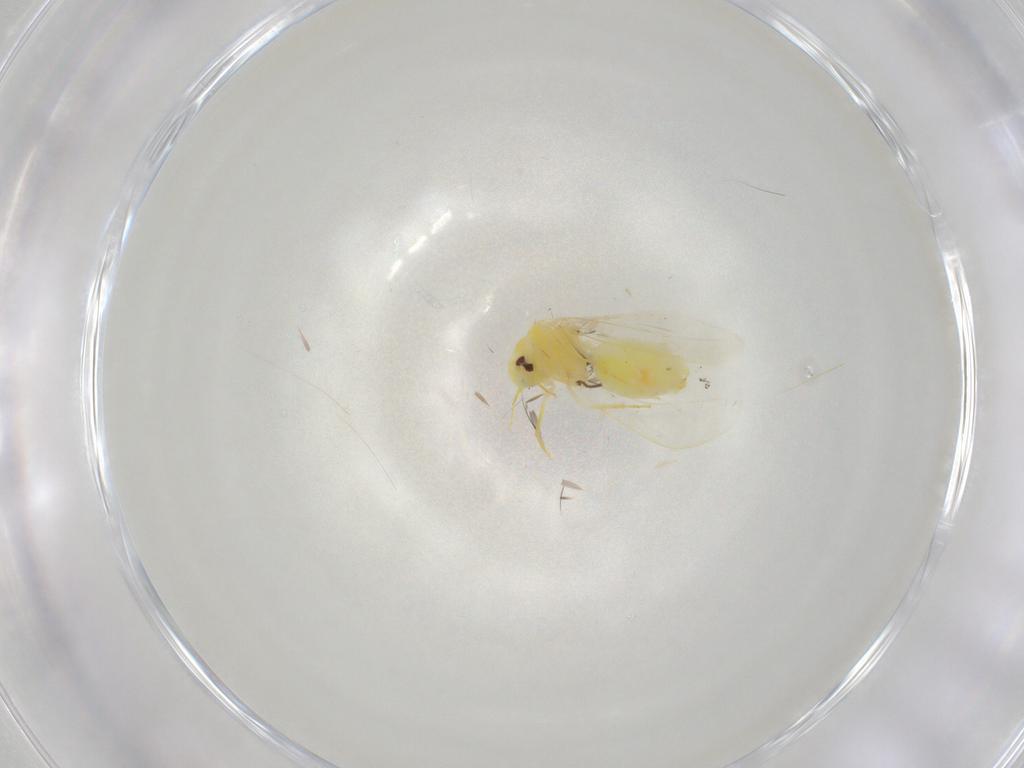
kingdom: Animalia
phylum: Arthropoda
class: Insecta
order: Hemiptera
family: Aleyrodidae
